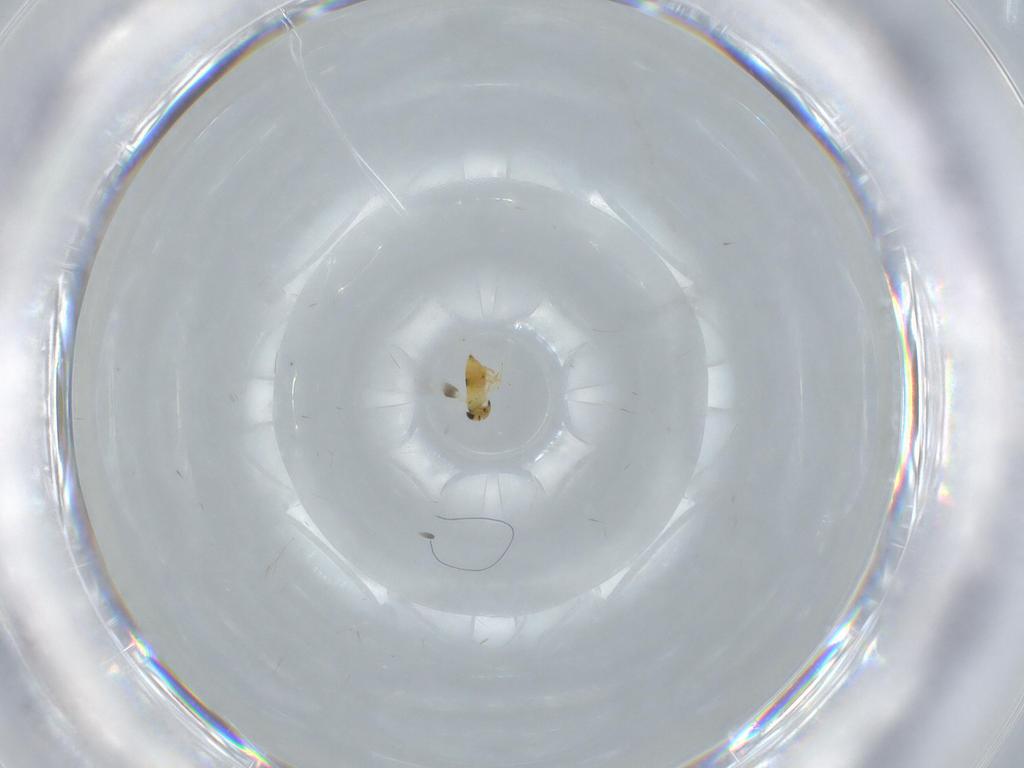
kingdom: Animalia
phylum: Arthropoda
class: Insecta
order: Hymenoptera
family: Signiphoridae
